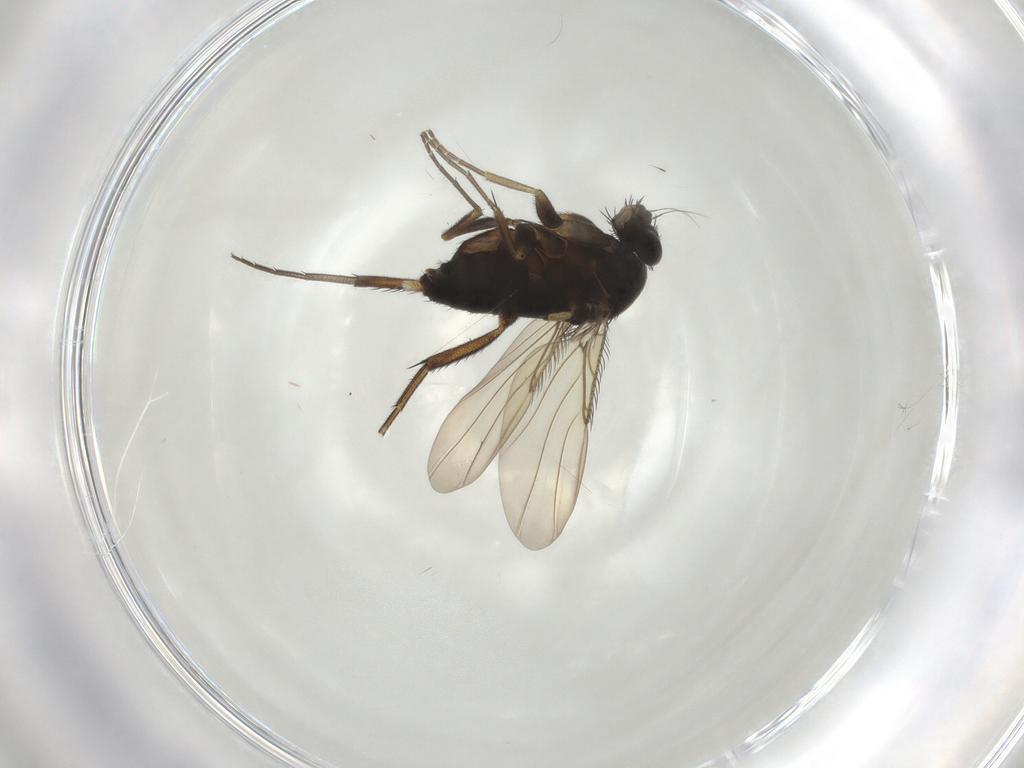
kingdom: Animalia
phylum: Arthropoda
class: Insecta
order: Diptera
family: Phoridae
